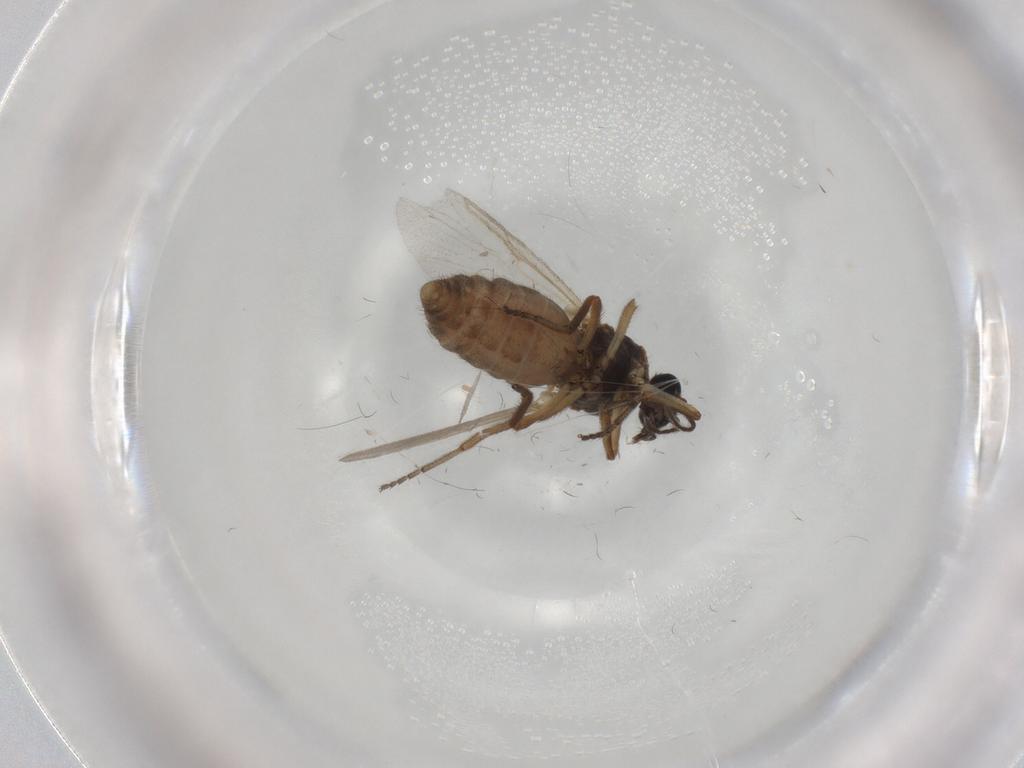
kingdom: Animalia
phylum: Arthropoda
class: Insecta
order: Diptera
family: Ceratopogonidae
